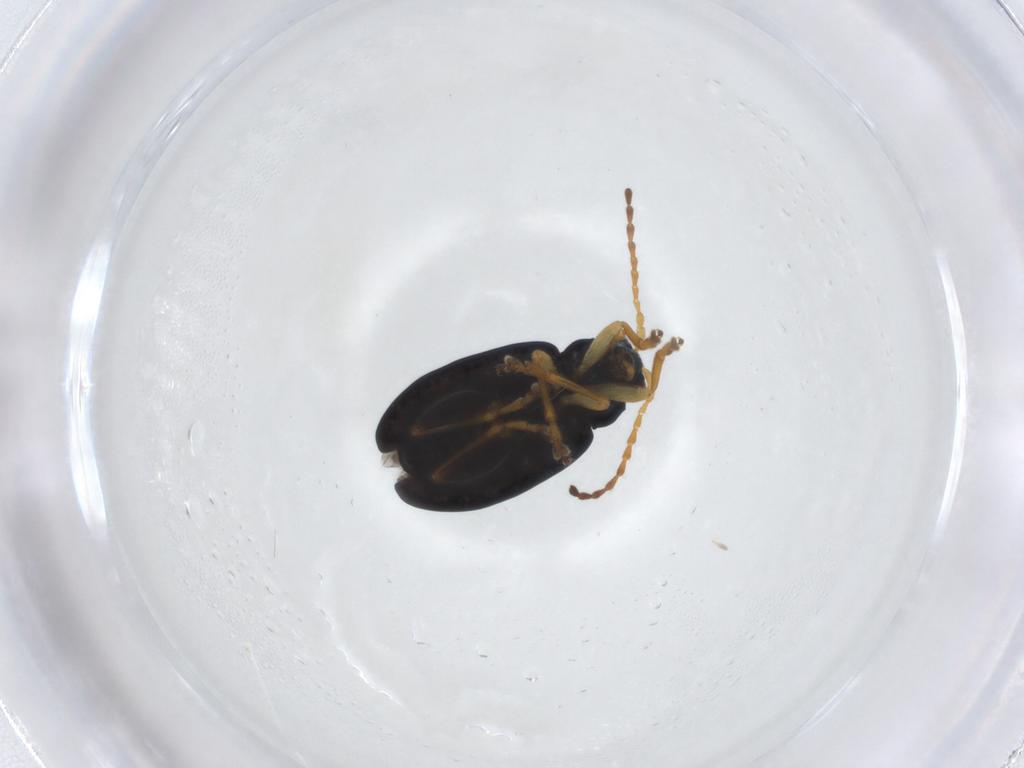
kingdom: Animalia
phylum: Arthropoda
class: Insecta
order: Coleoptera
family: Chrysomelidae
